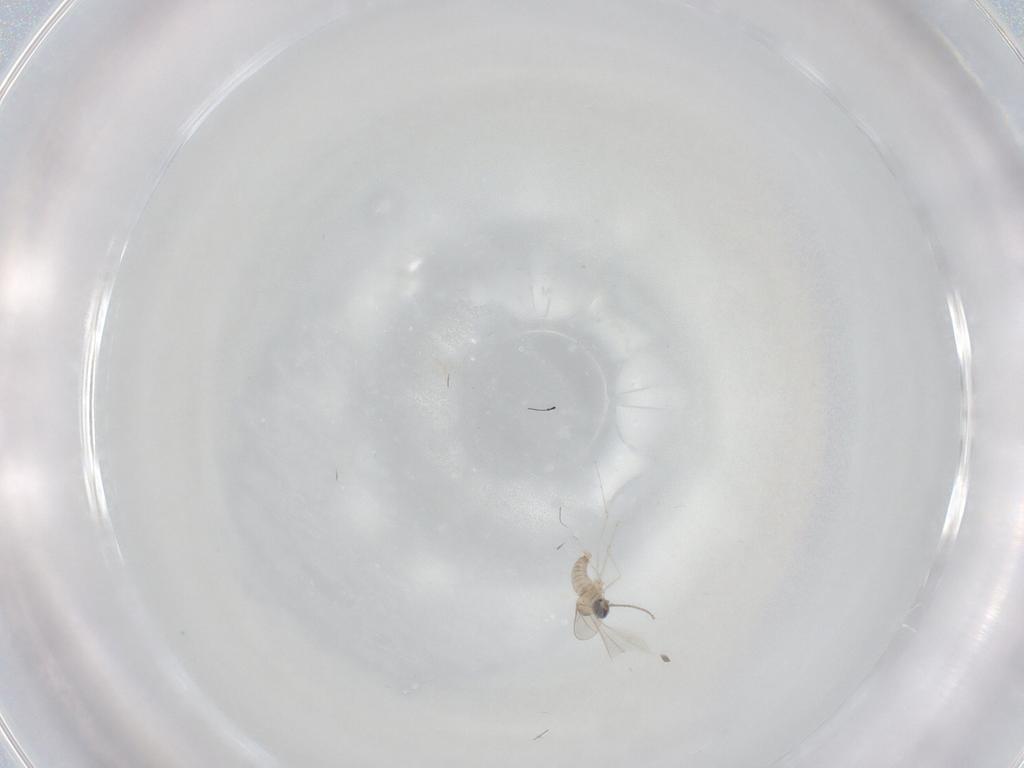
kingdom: Animalia
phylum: Arthropoda
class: Insecta
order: Diptera
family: Cecidomyiidae
